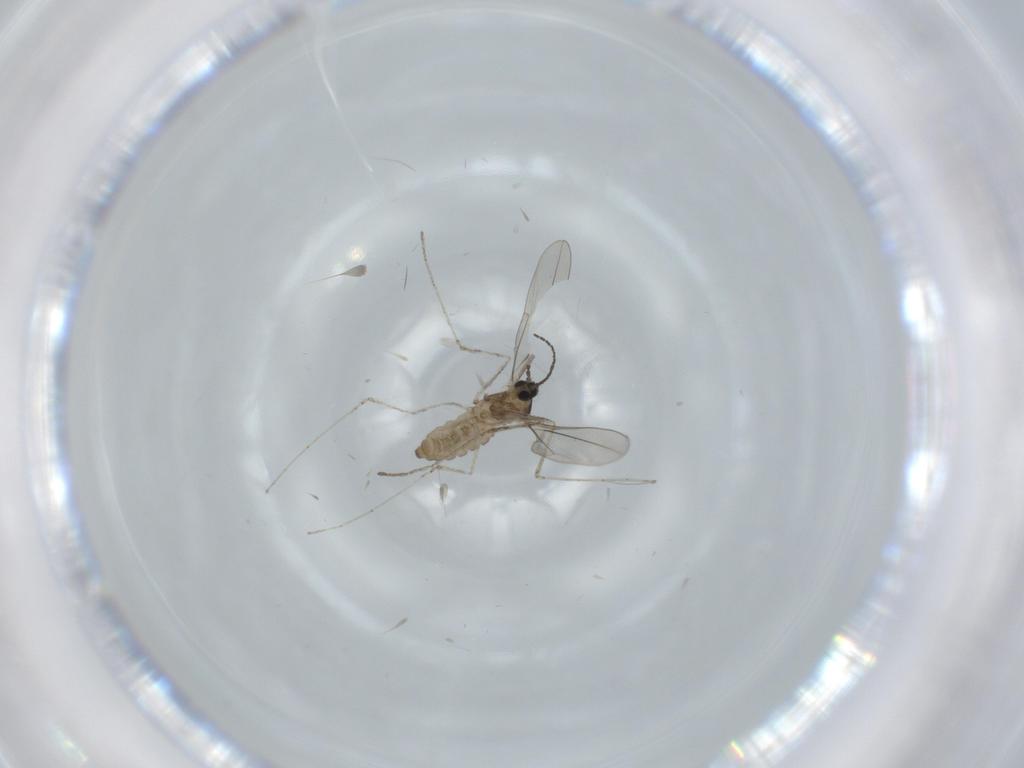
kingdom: Animalia
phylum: Arthropoda
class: Insecta
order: Diptera
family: Cecidomyiidae
